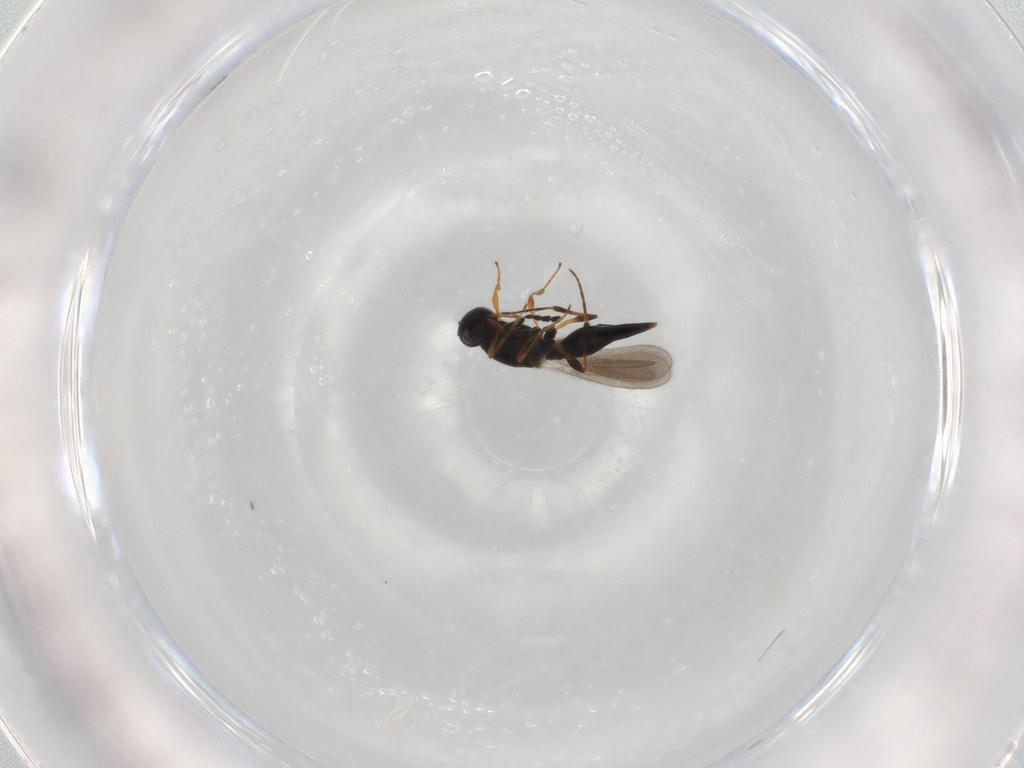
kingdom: Animalia
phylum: Arthropoda
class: Insecta
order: Hymenoptera
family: Platygastridae
